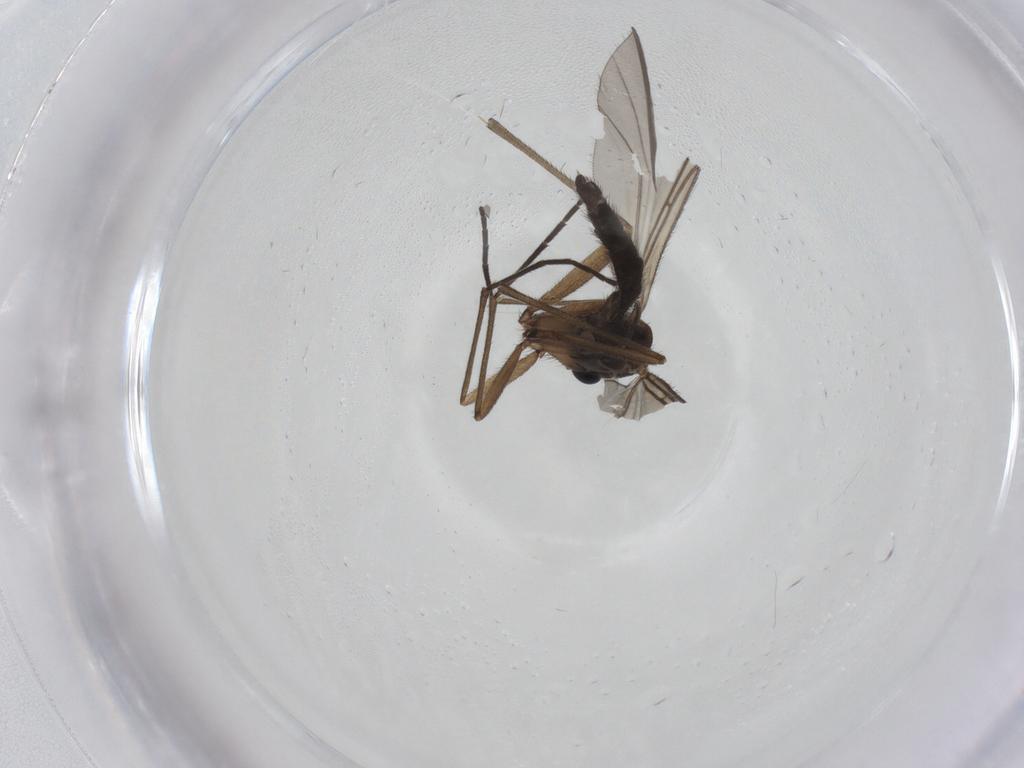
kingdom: Animalia
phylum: Arthropoda
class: Insecta
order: Diptera
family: Sciaridae
